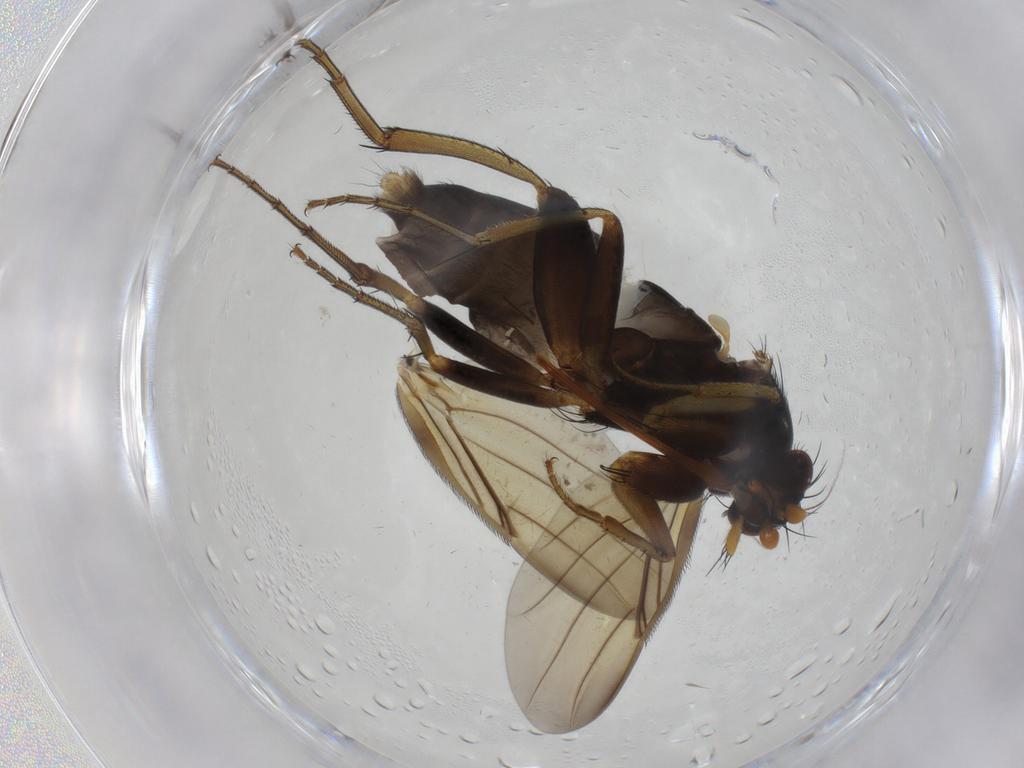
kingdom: Animalia
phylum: Arthropoda
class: Insecta
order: Diptera
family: Phoridae
